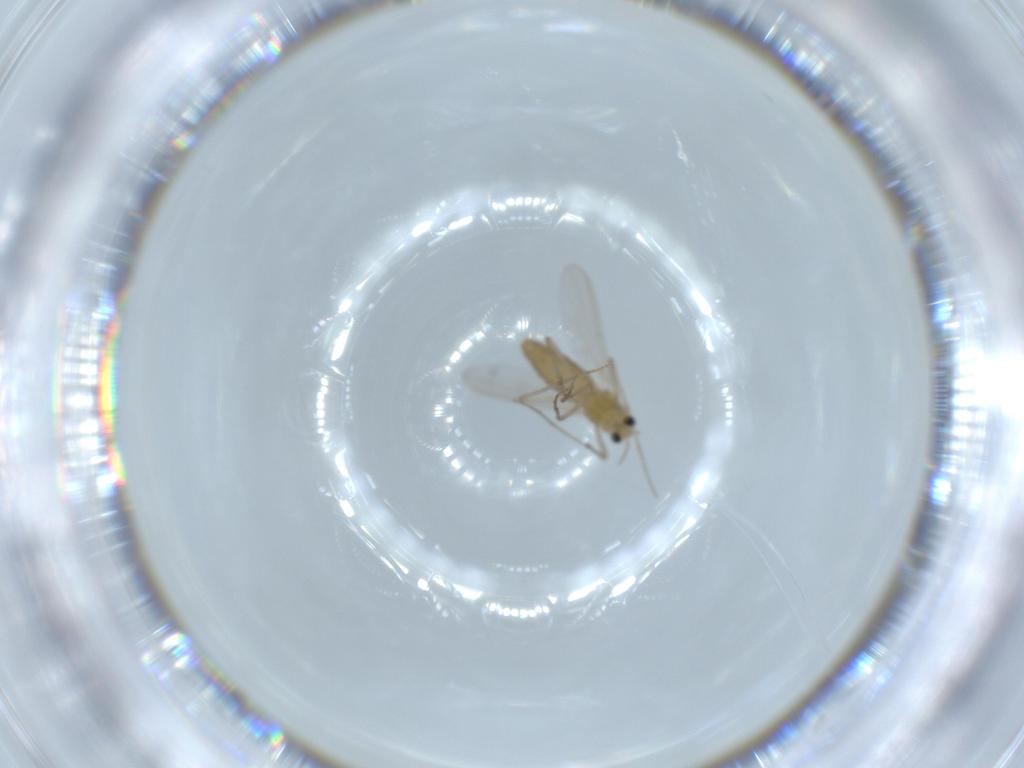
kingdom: Animalia
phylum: Arthropoda
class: Insecta
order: Diptera
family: Chironomidae
